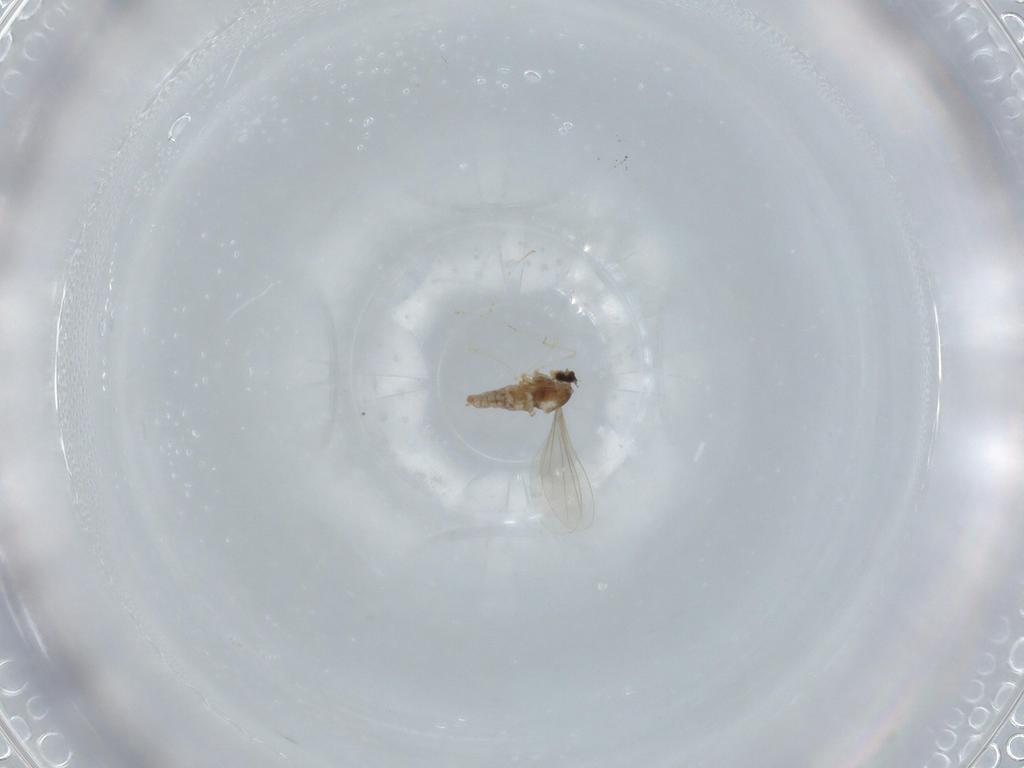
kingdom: Animalia
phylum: Arthropoda
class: Insecta
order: Diptera
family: Cecidomyiidae
